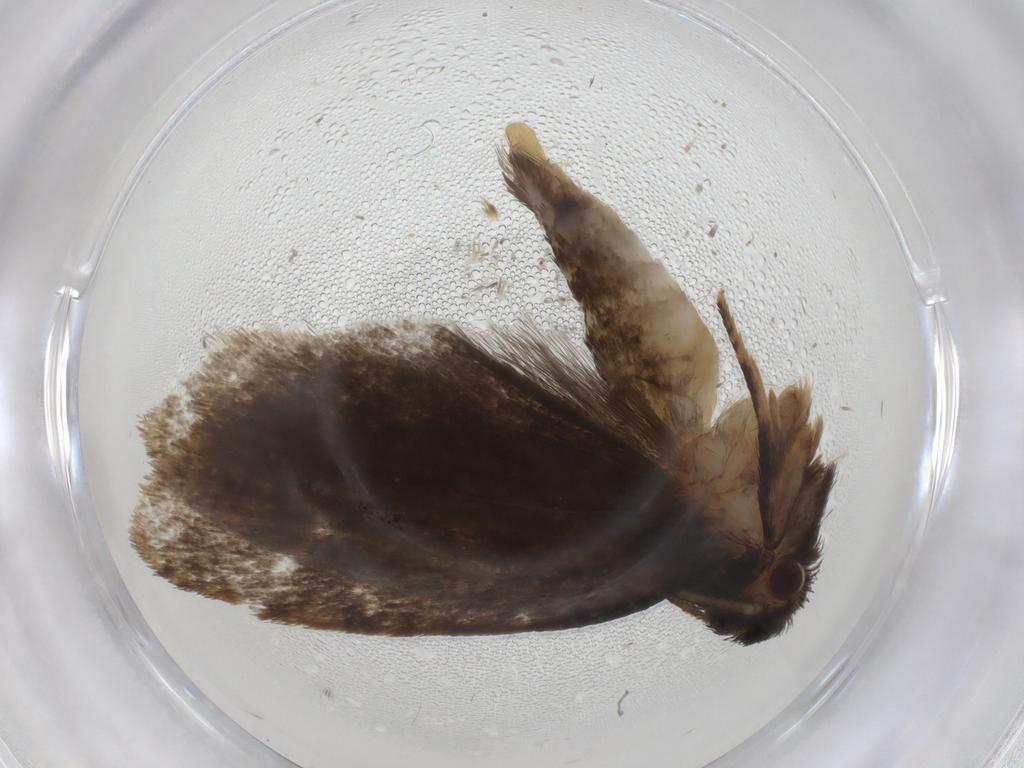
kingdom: Animalia
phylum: Arthropoda
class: Insecta
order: Lepidoptera
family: Tineidae
